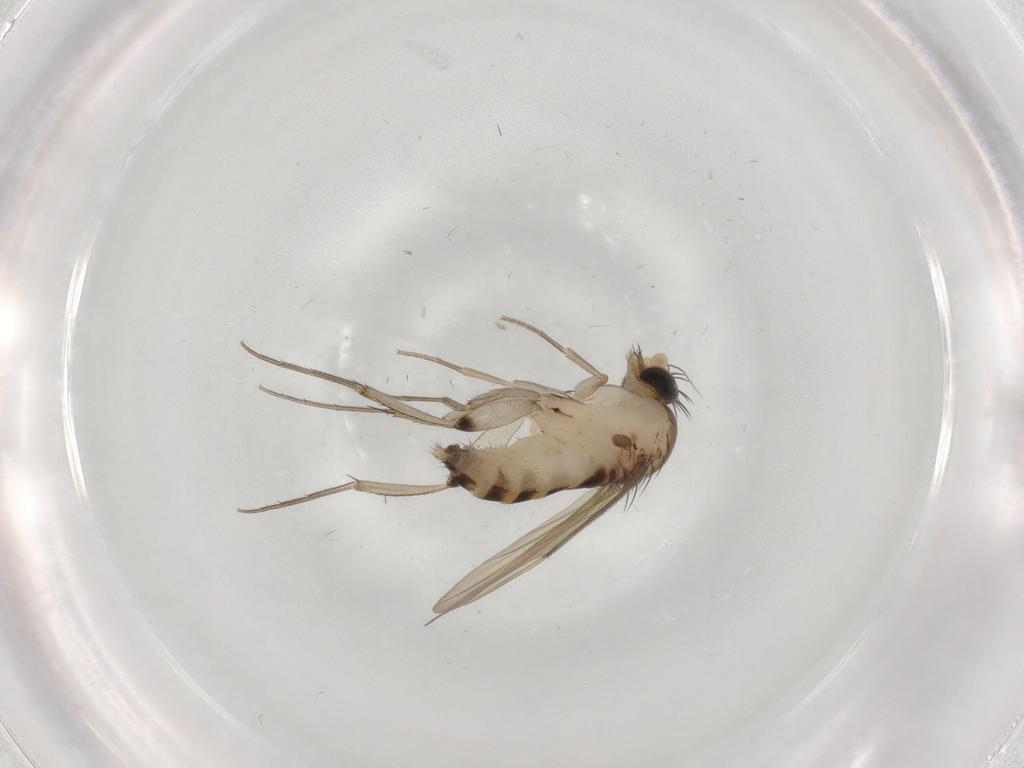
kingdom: Animalia
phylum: Arthropoda
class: Insecta
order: Diptera
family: Phoridae
